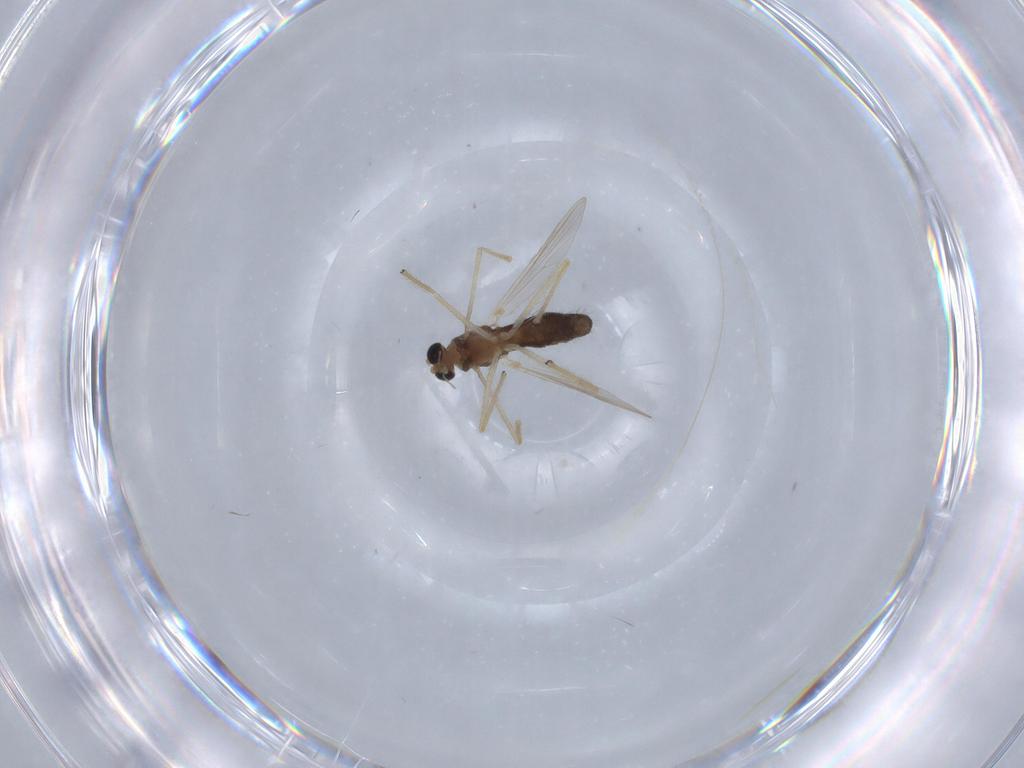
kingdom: Animalia
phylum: Arthropoda
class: Insecta
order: Diptera
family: Chironomidae
